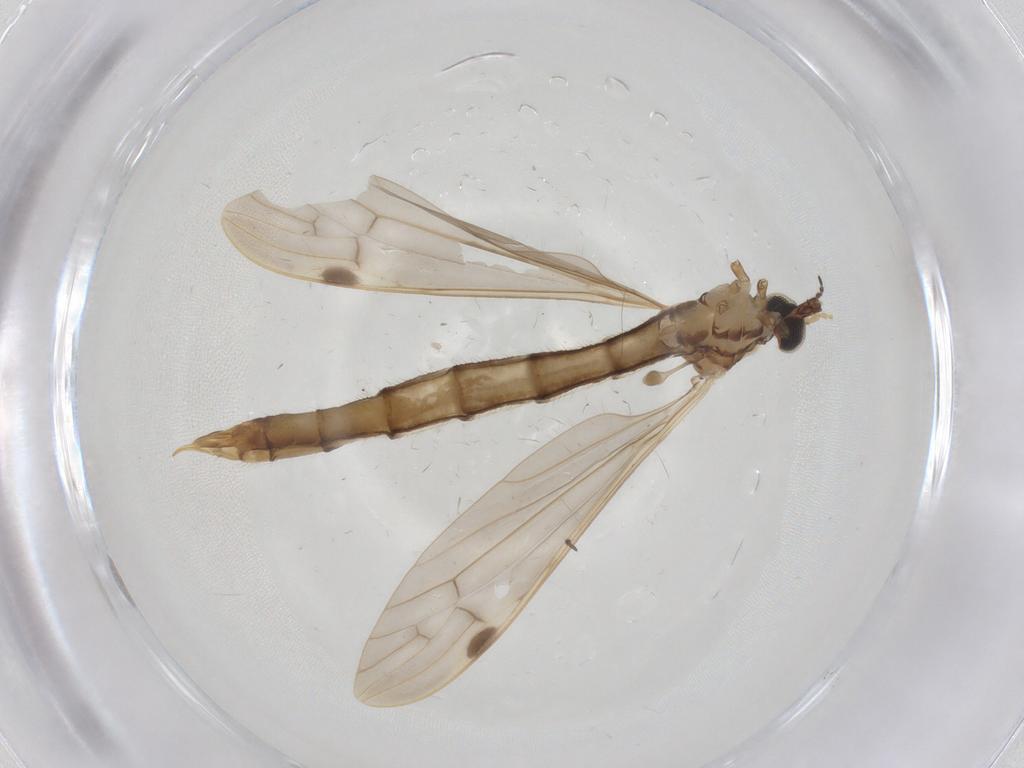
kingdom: Animalia
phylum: Arthropoda
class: Insecta
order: Diptera
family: Limoniidae
